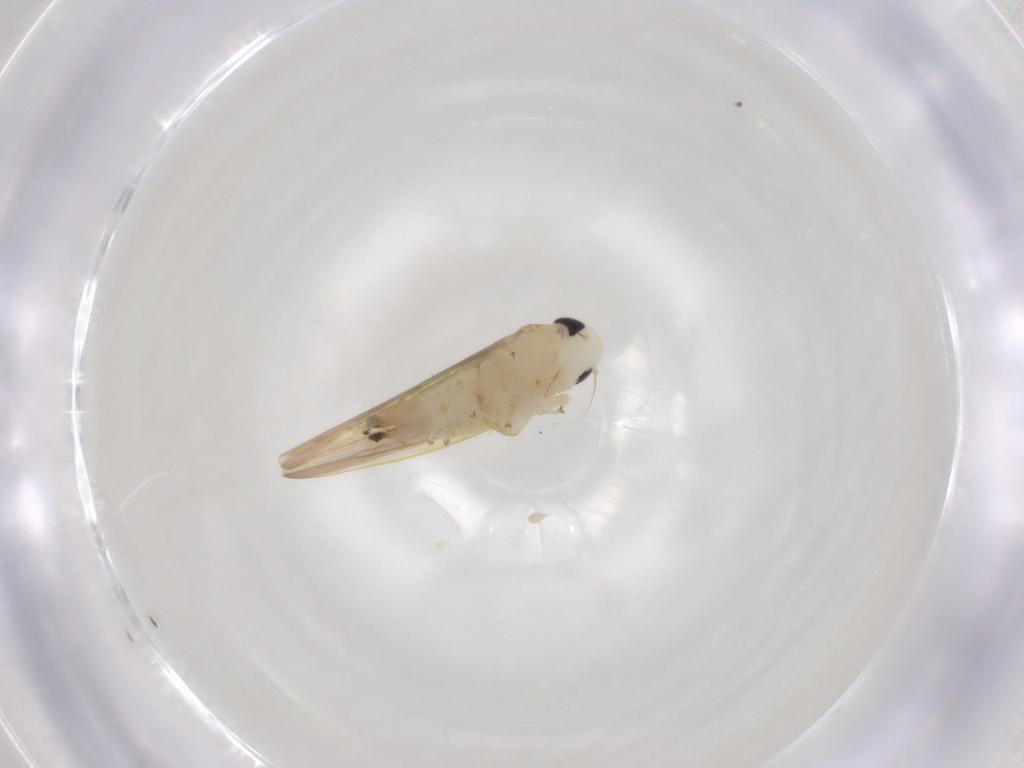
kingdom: Animalia
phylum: Arthropoda
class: Insecta
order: Hemiptera
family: Cicadellidae
